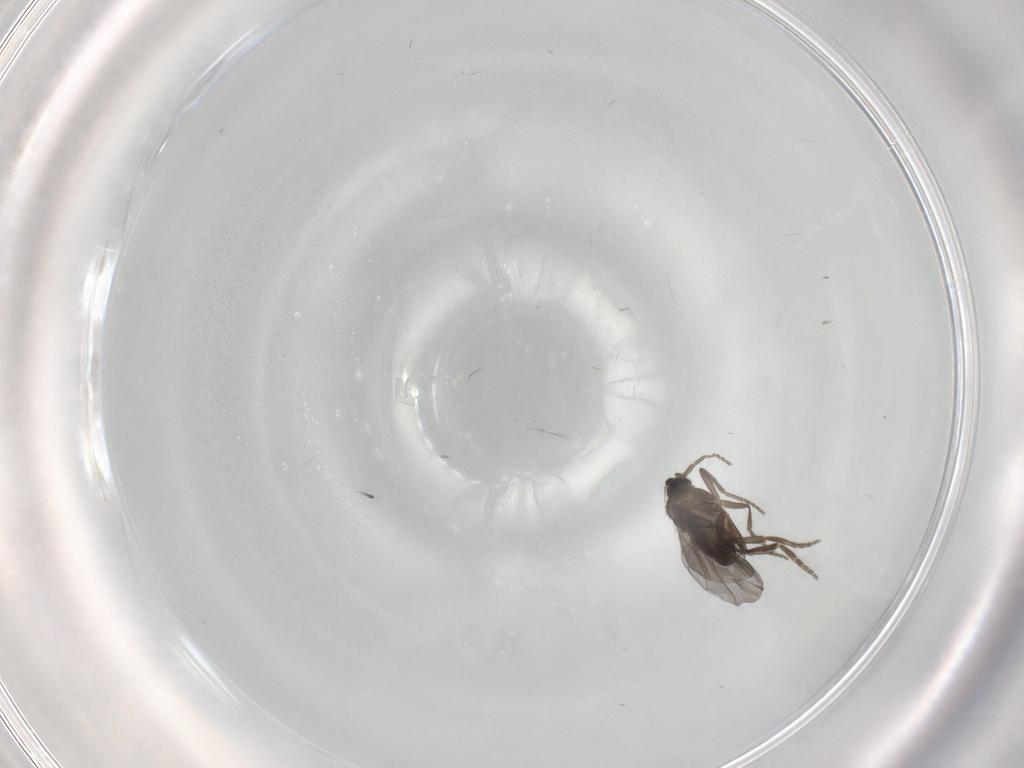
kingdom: Animalia
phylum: Arthropoda
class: Insecta
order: Diptera
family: Phoridae
